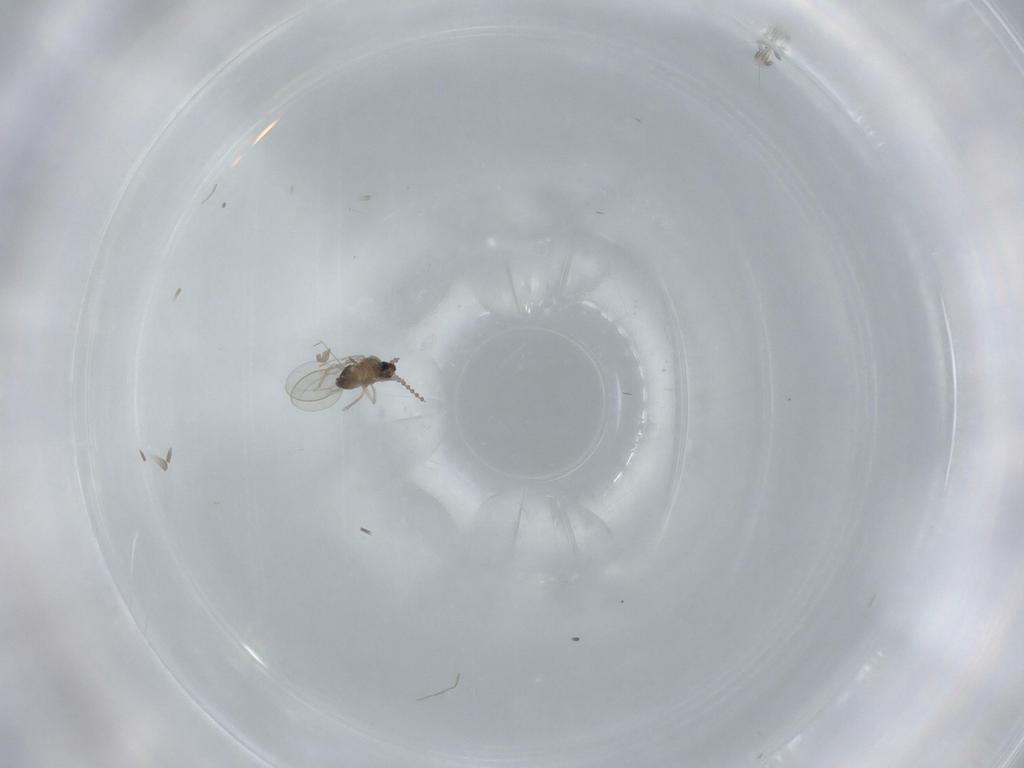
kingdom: Animalia
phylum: Arthropoda
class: Insecta
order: Diptera
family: Cecidomyiidae
